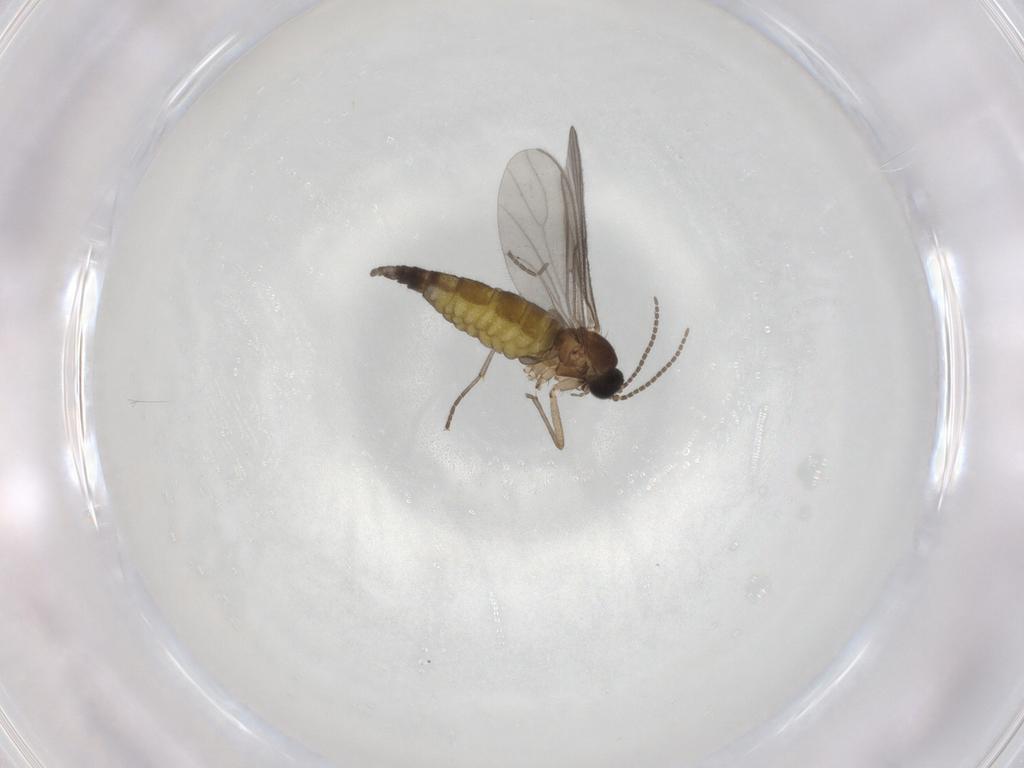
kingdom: Animalia
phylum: Arthropoda
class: Insecta
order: Diptera
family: Sciaridae
